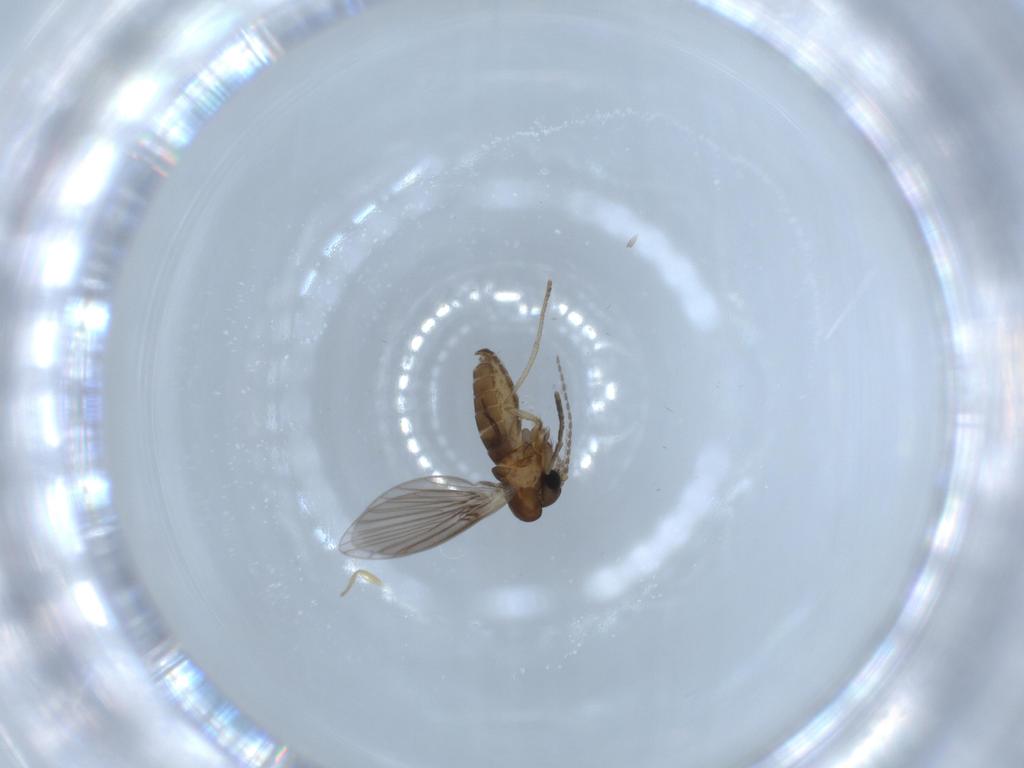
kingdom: Animalia
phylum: Arthropoda
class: Insecta
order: Diptera
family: Psychodidae
